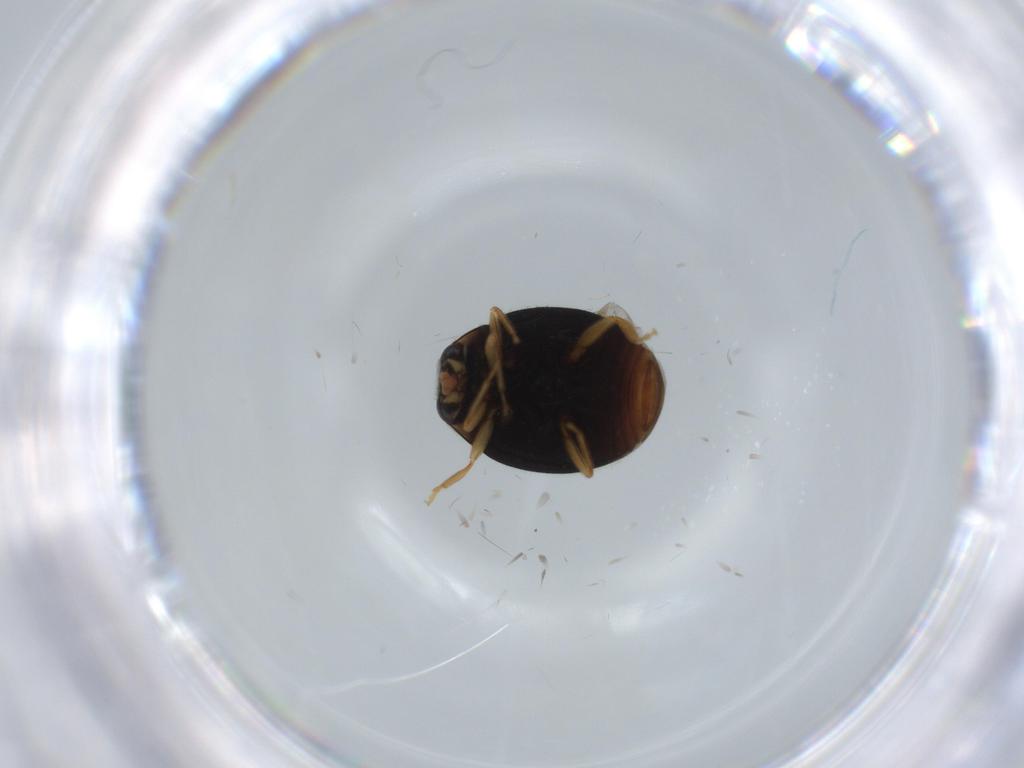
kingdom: Animalia
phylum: Arthropoda
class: Insecta
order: Coleoptera
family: Coccinellidae
